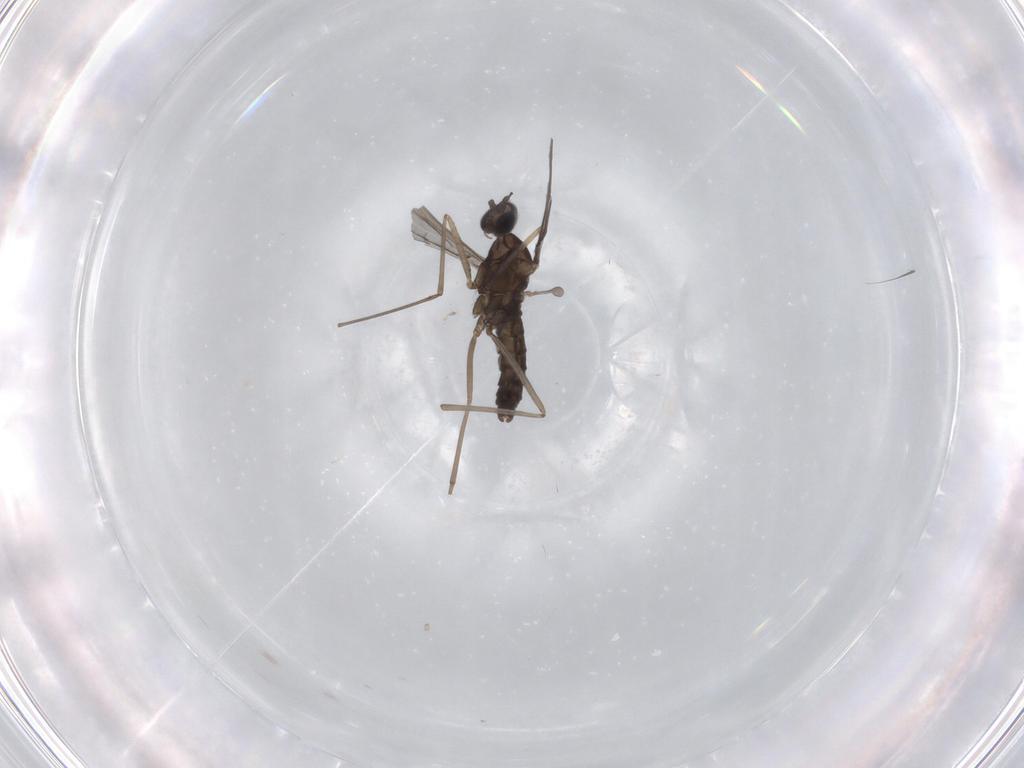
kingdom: Animalia
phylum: Arthropoda
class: Insecta
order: Diptera
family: Cecidomyiidae
